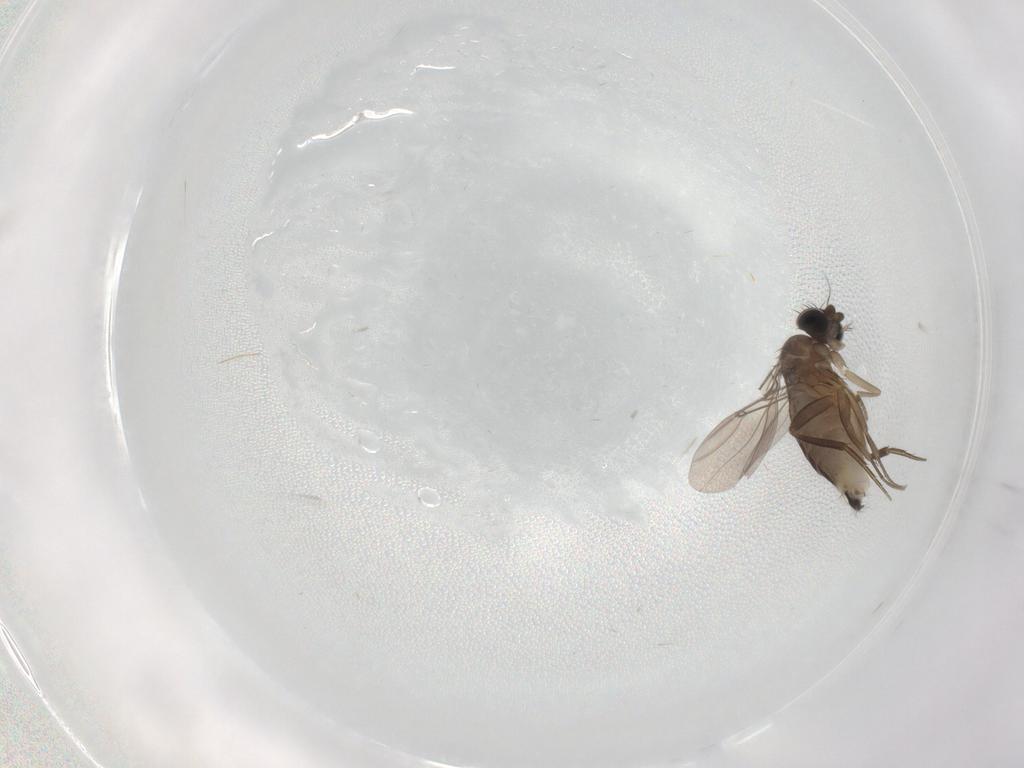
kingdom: Animalia
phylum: Arthropoda
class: Insecta
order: Diptera
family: Phoridae
